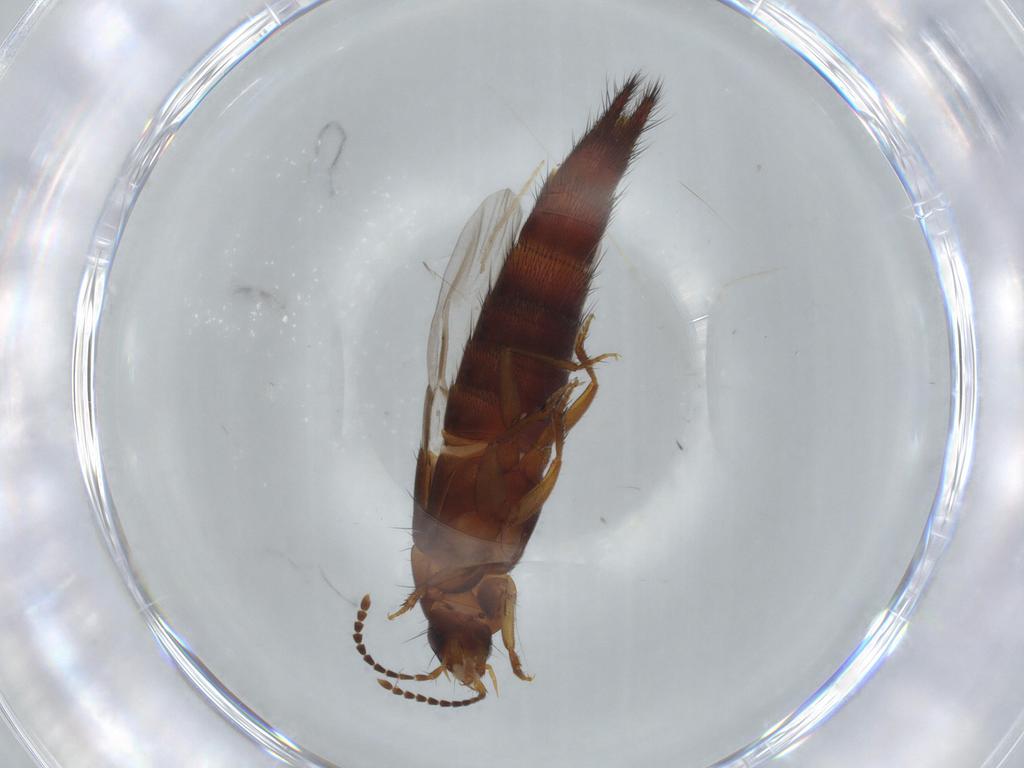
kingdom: Animalia
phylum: Arthropoda
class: Insecta
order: Coleoptera
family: Staphylinidae
